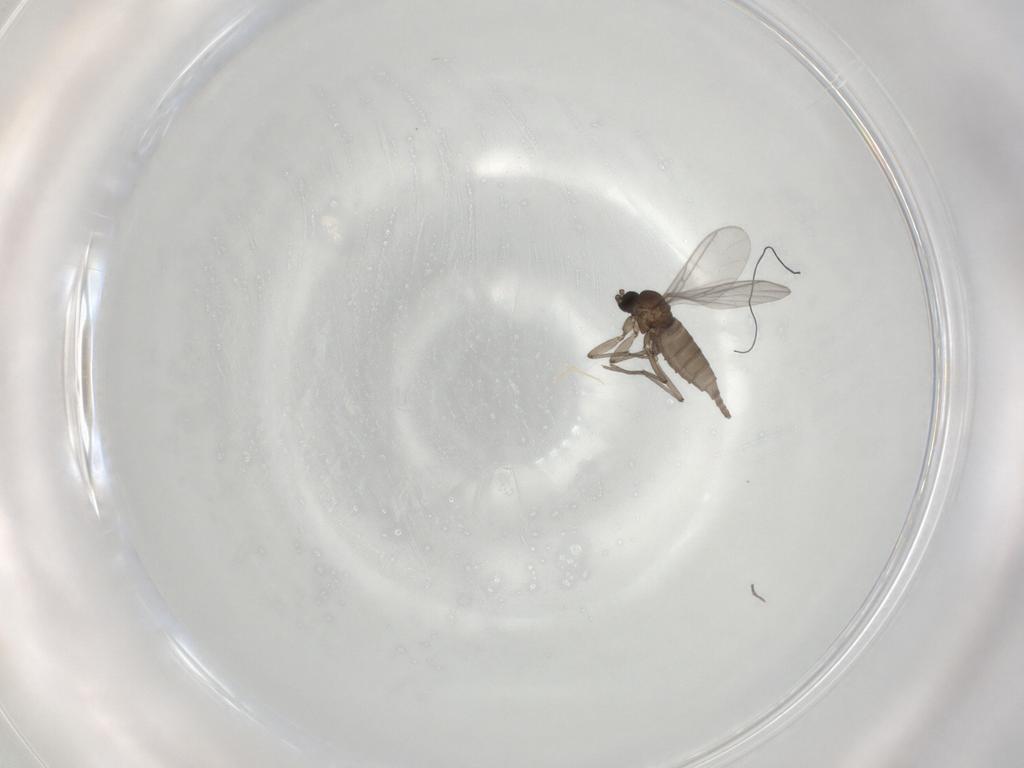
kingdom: Animalia
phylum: Arthropoda
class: Insecta
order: Diptera
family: Sciaridae
